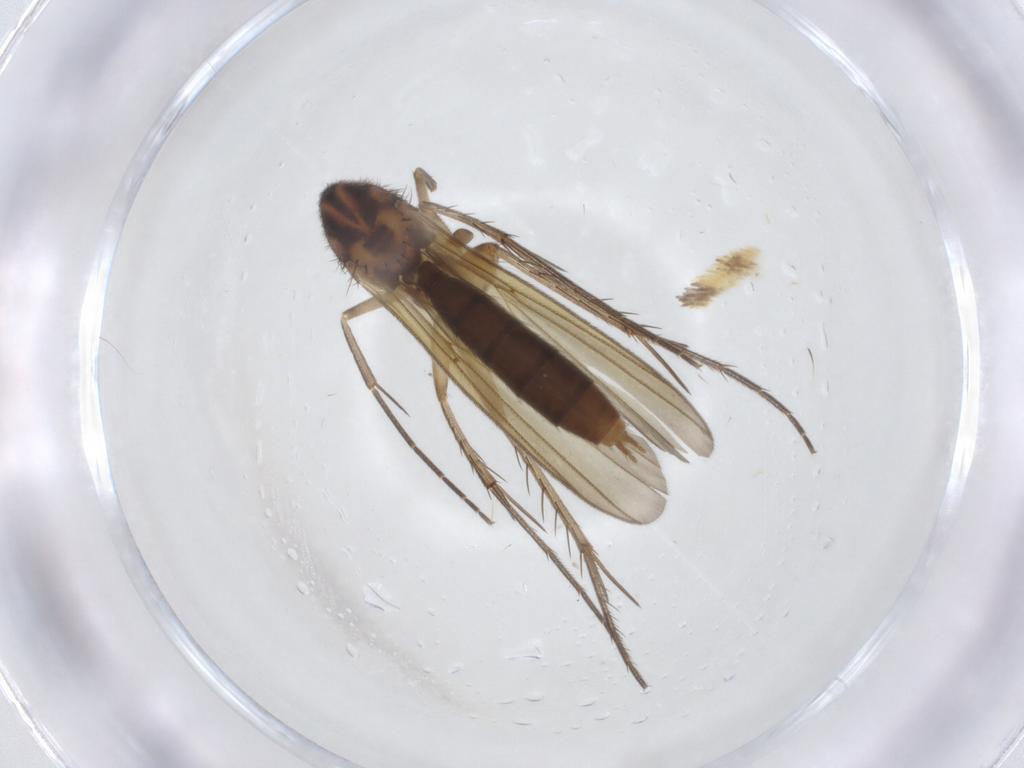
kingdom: Animalia
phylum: Arthropoda
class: Insecta
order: Diptera
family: Mycetophilidae
